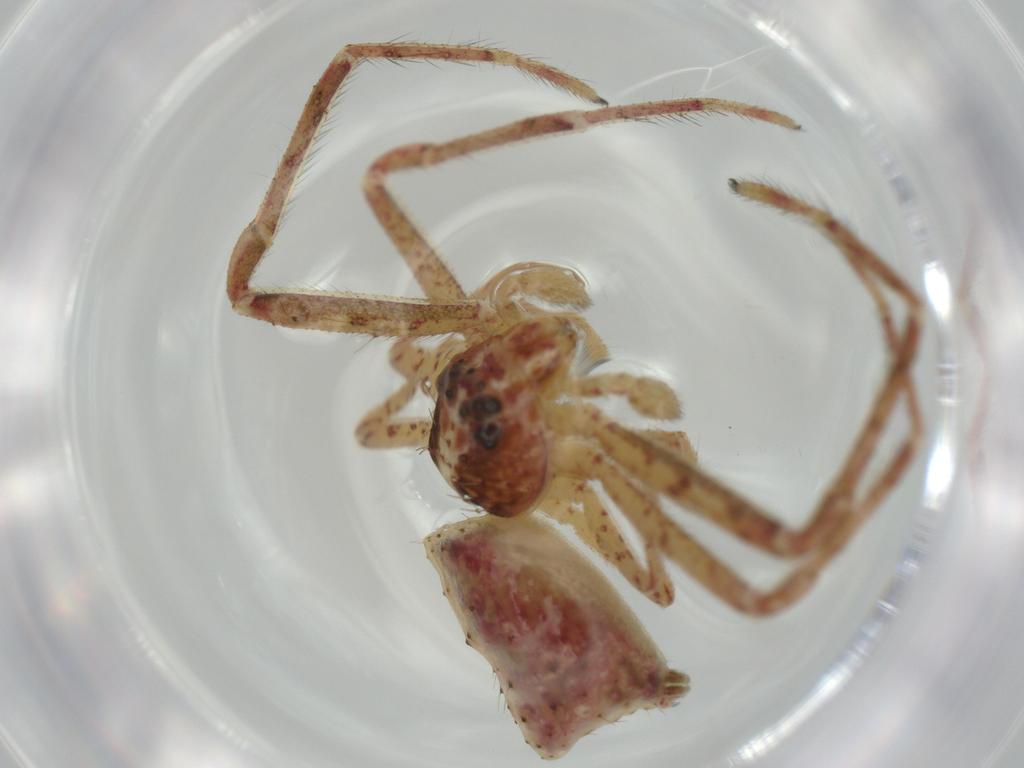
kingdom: Animalia
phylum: Arthropoda
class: Arachnida
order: Araneae
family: Thomisidae
